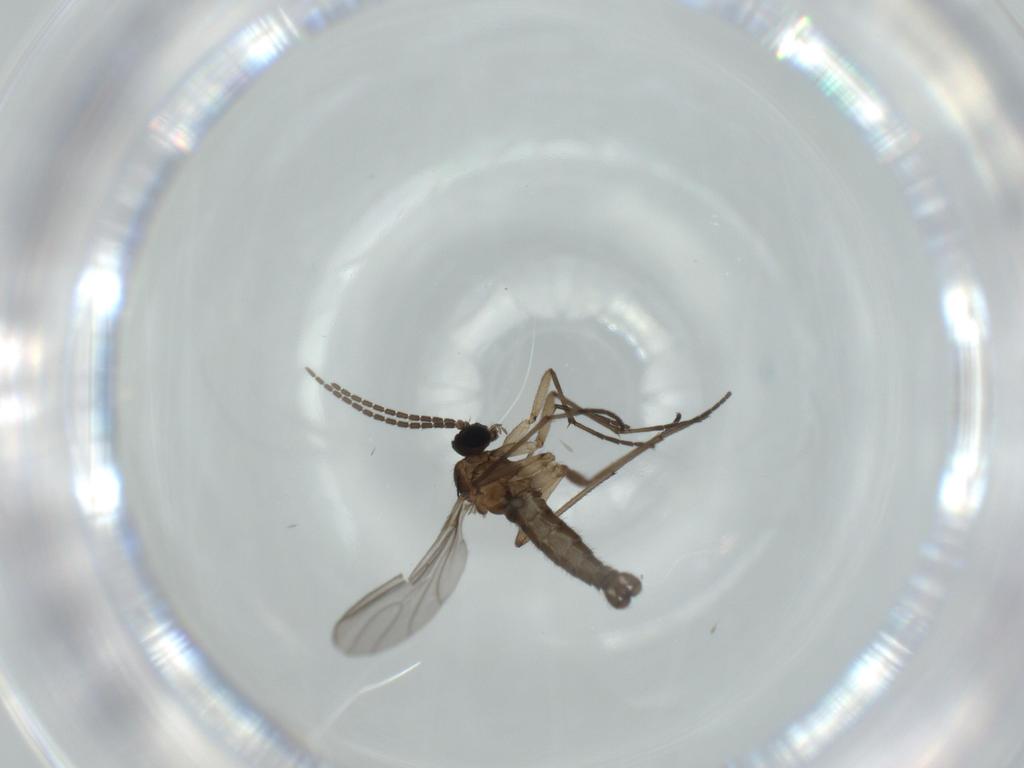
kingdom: Animalia
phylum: Arthropoda
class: Insecta
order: Diptera
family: Sciaridae
